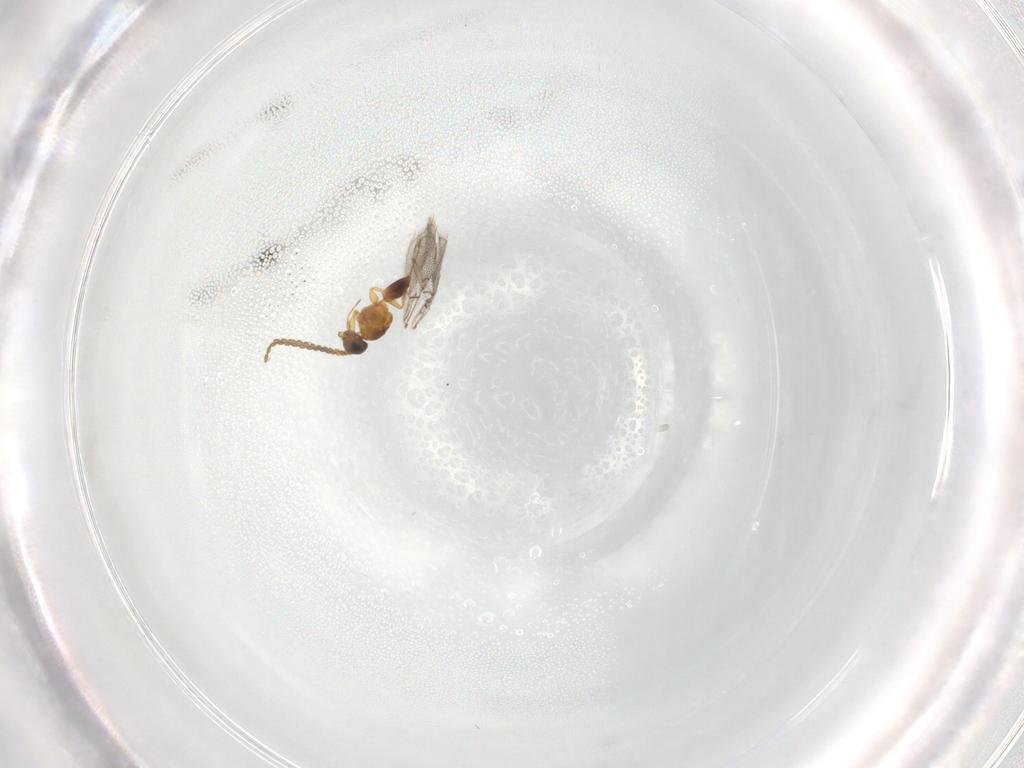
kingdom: Animalia
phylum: Arthropoda
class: Insecta
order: Hymenoptera
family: Figitidae
